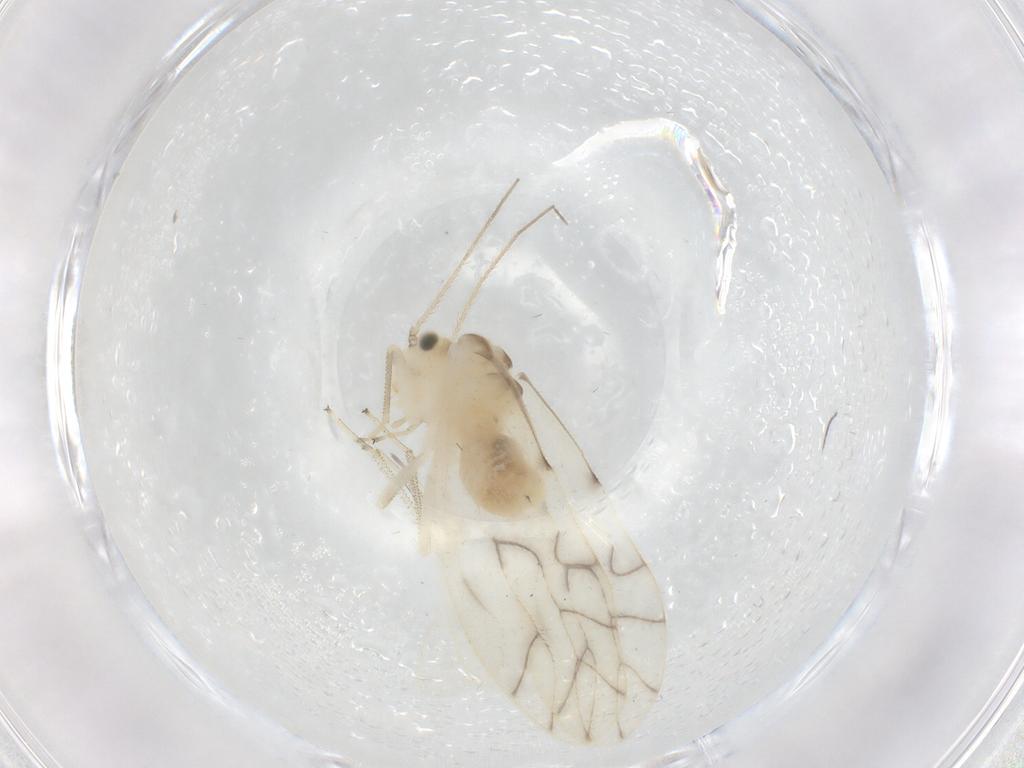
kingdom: Animalia
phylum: Arthropoda
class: Insecta
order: Psocodea
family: Caeciliusidae
